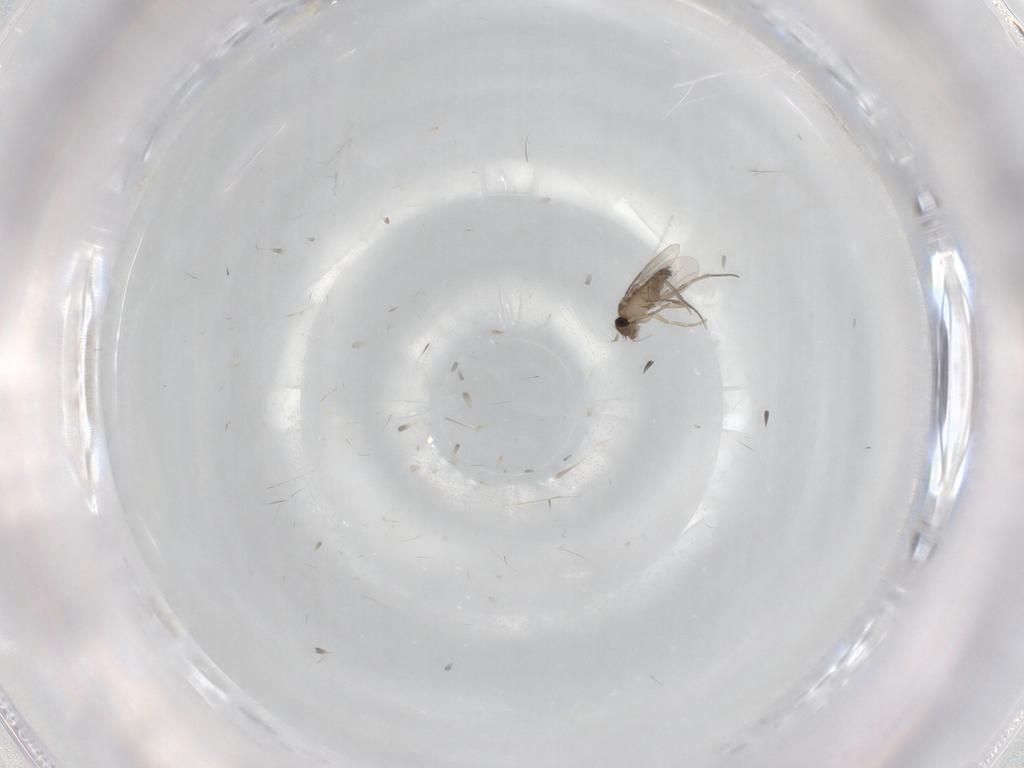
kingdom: Animalia
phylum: Arthropoda
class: Insecta
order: Diptera
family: Phoridae
